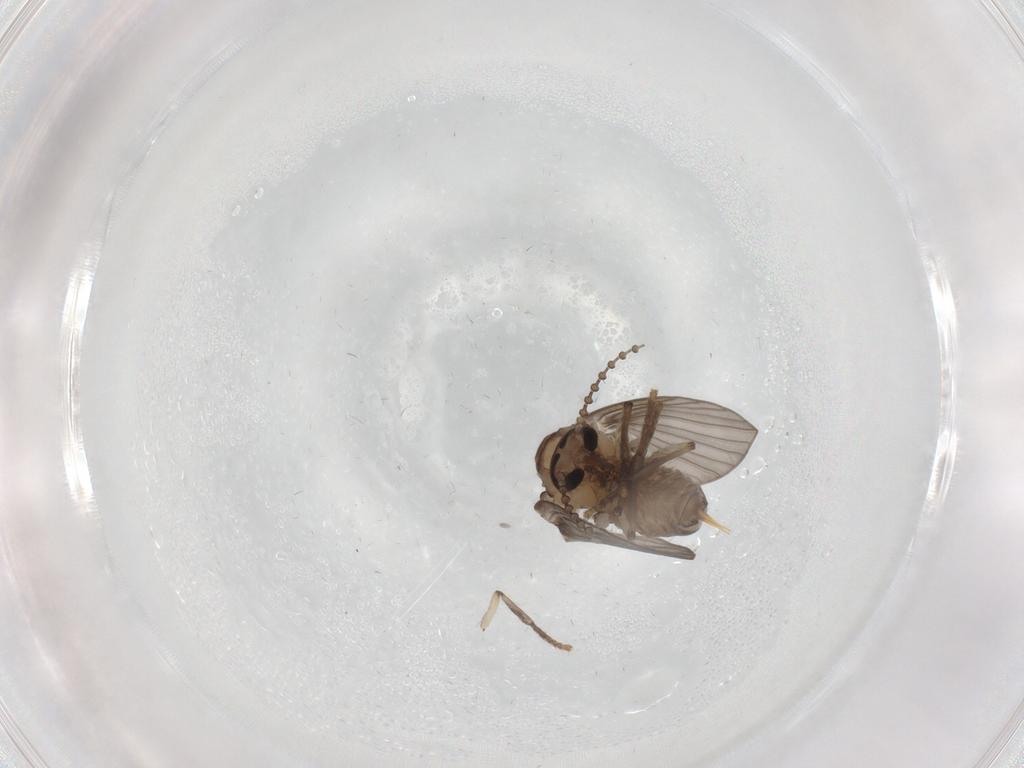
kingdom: Animalia
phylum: Arthropoda
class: Insecta
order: Diptera
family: Psychodidae
